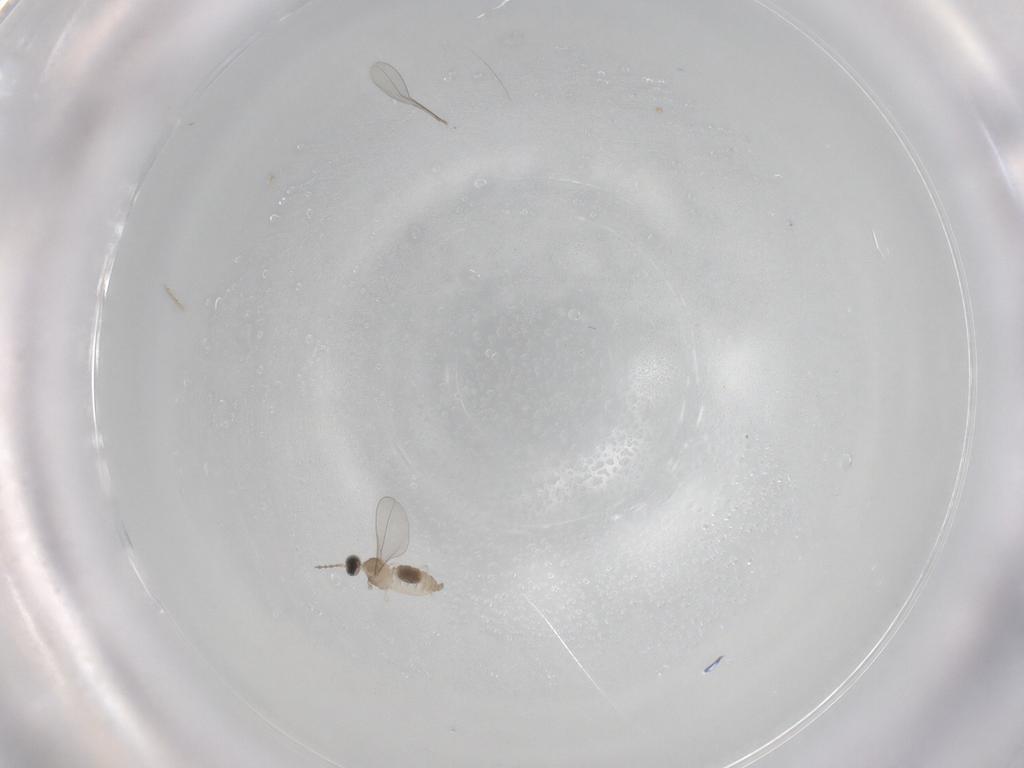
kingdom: Animalia
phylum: Arthropoda
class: Insecta
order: Diptera
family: Cecidomyiidae
